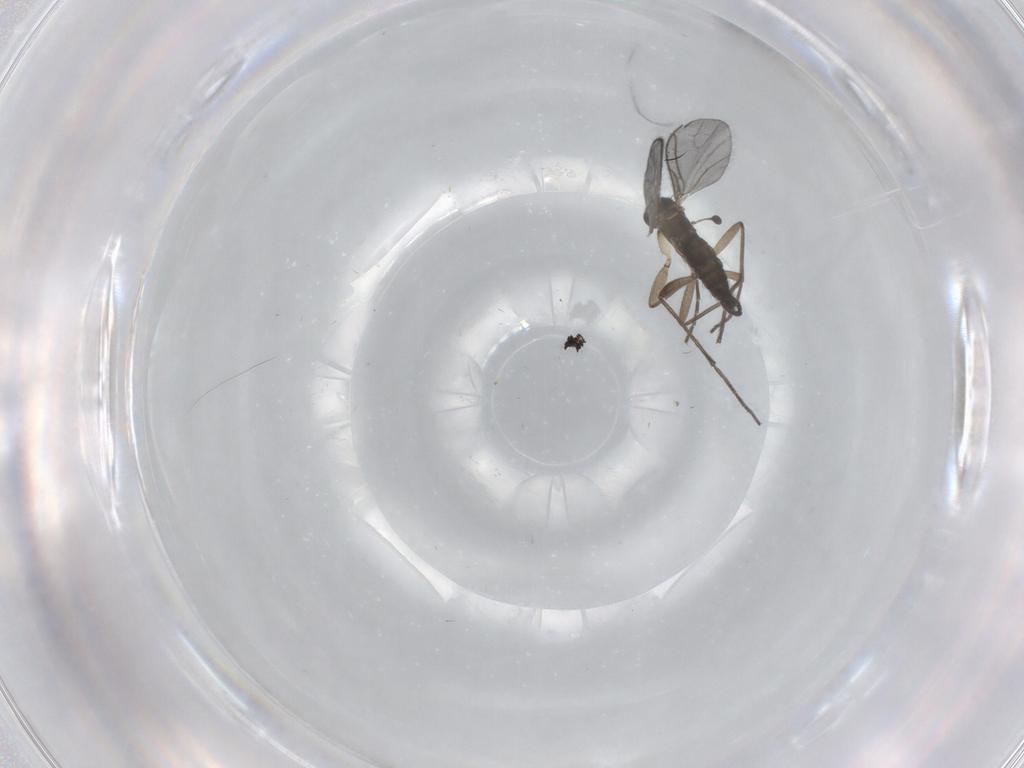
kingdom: Animalia
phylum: Arthropoda
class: Insecta
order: Diptera
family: Sciaridae
